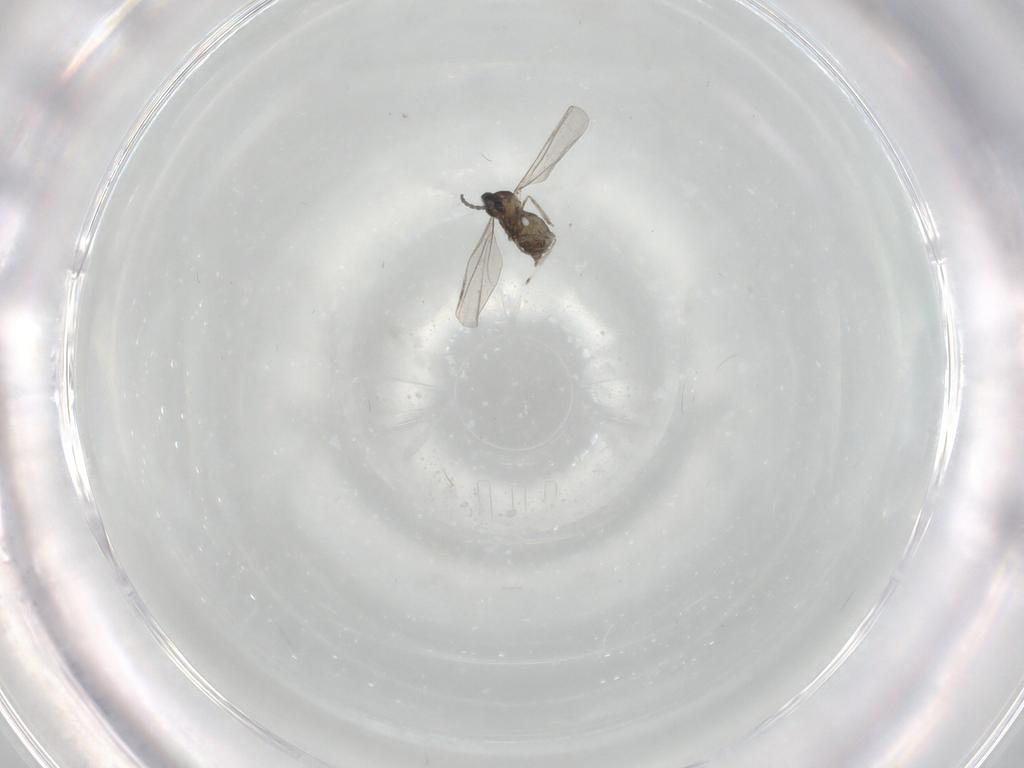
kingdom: Animalia
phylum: Arthropoda
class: Insecta
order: Diptera
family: Cecidomyiidae
